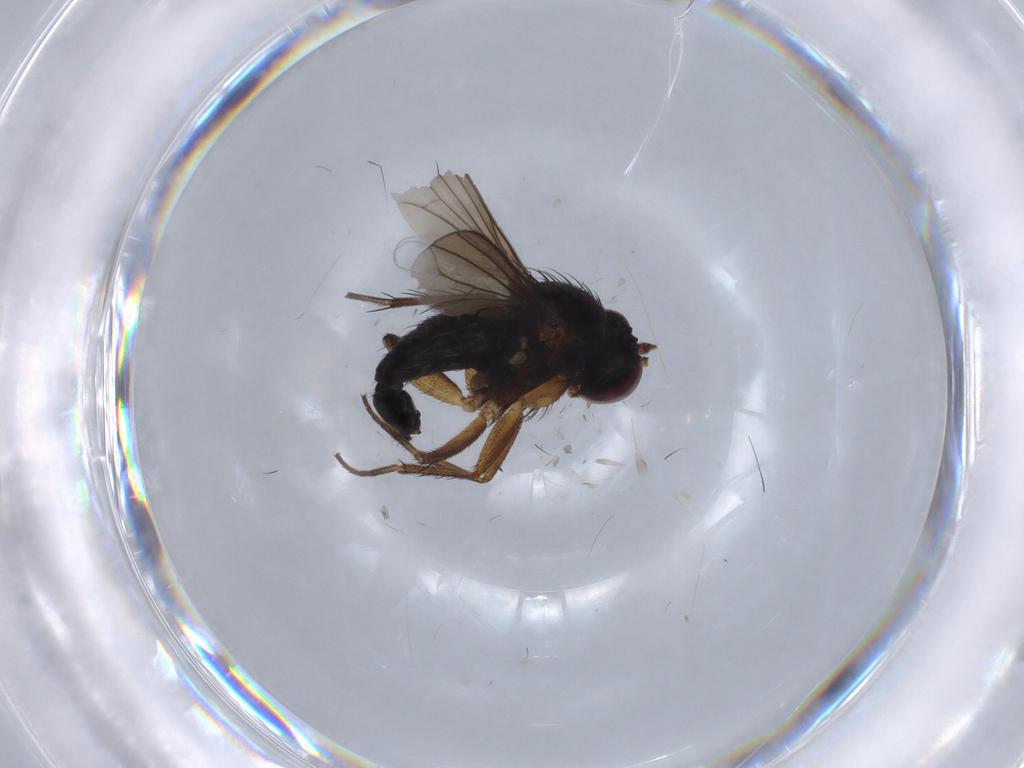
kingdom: Animalia
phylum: Arthropoda
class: Insecta
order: Diptera
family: Dolichopodidae
